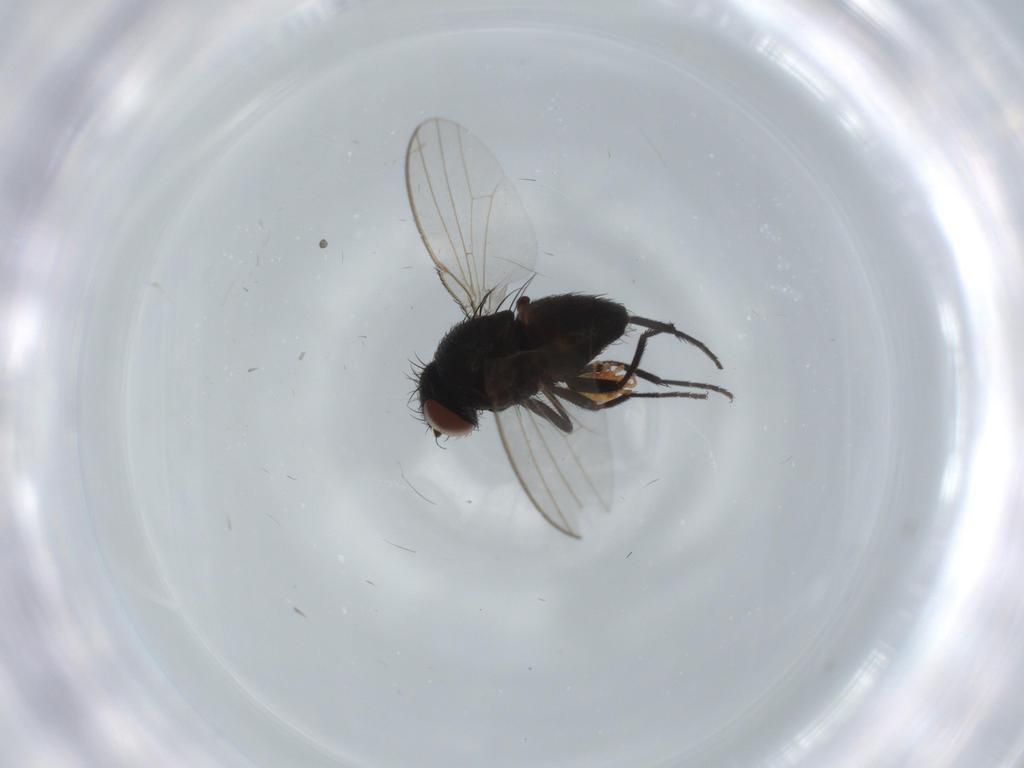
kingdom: Animalia
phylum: Arthropoda
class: Insecta
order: Diptera
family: Milichiidae
